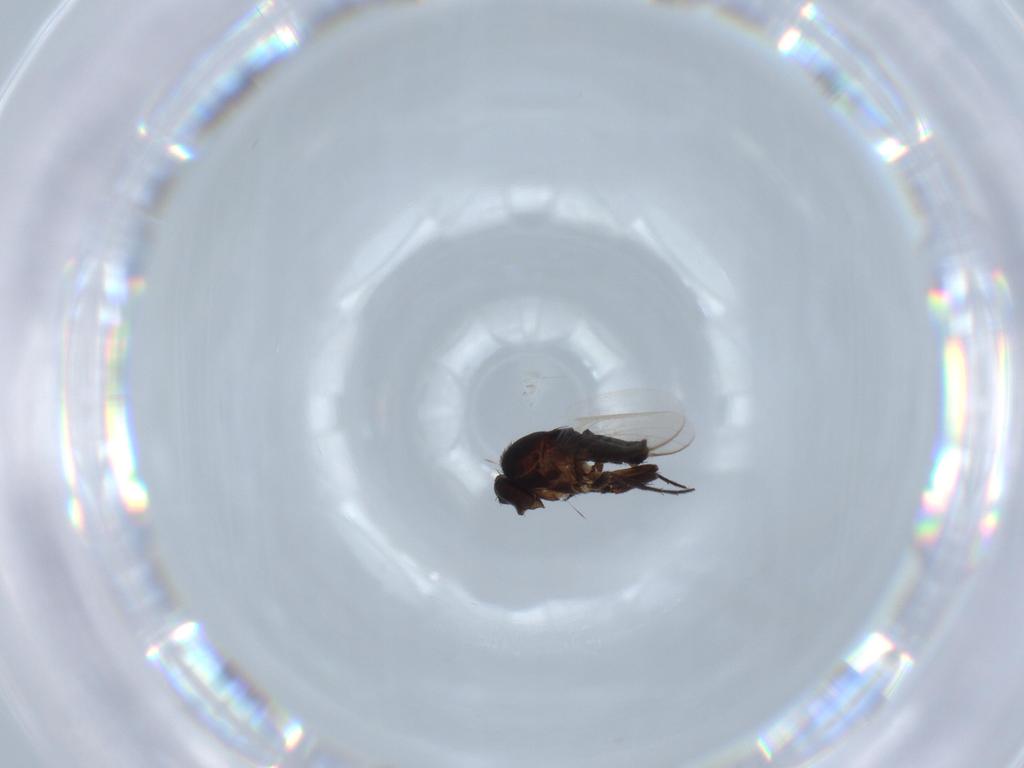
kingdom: Animalia
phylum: Arthropoda
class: Insecta
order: Diptera
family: Sphaeroceridae
